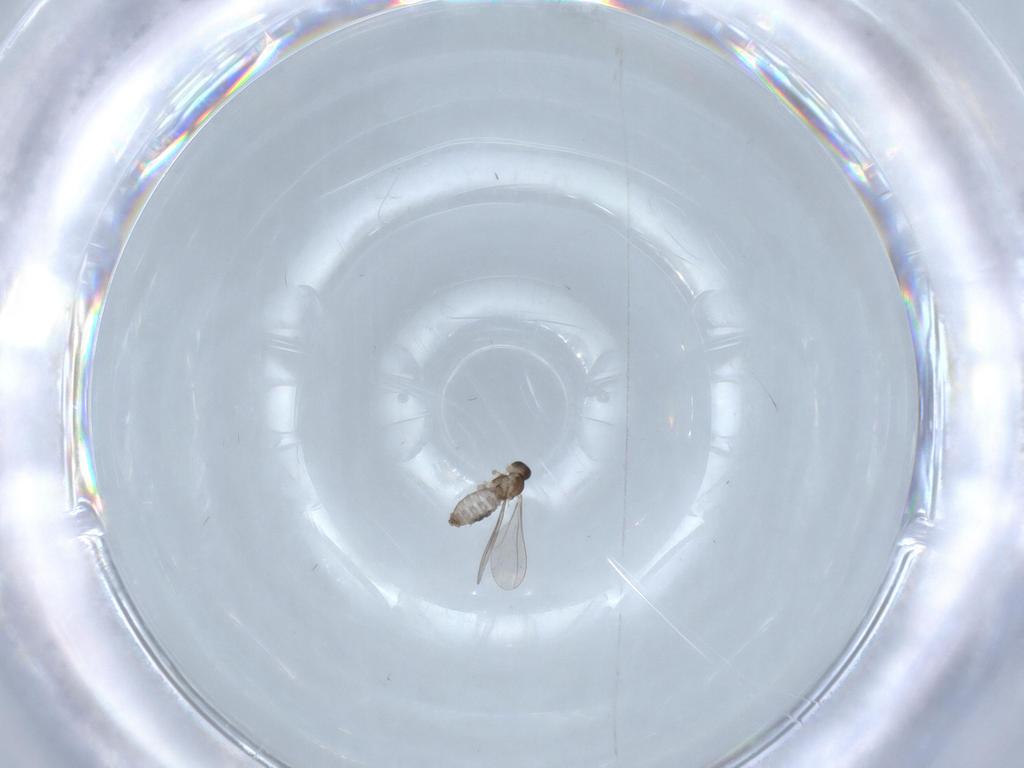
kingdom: Animalia
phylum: Arthropoda
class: Insecta
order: Diptera
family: Cecidomyiidae
